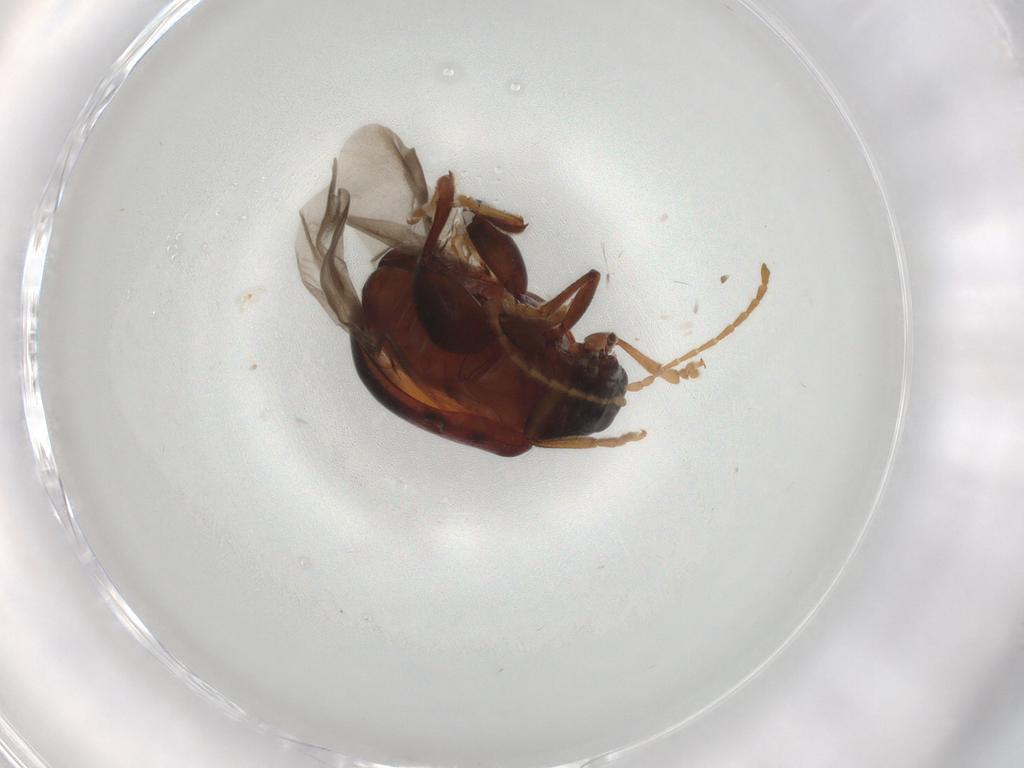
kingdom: Animalia
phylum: Arthropoda
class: Insecta
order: Coleoptera
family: Chrysomelidae
